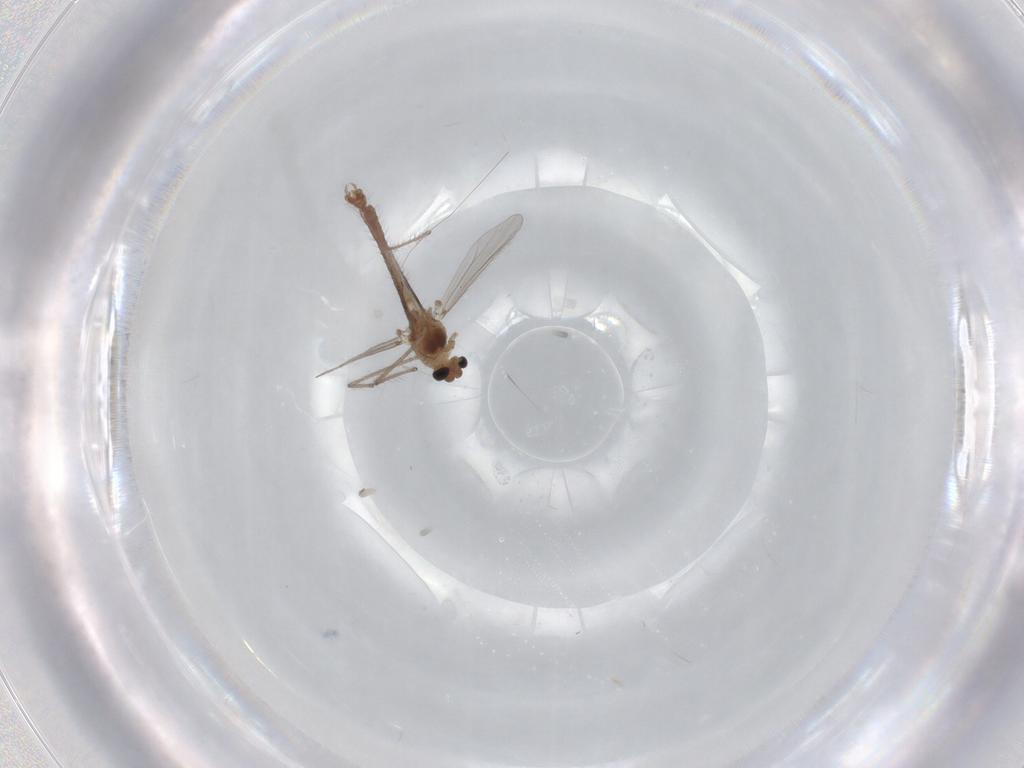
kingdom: Animalia
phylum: Arthropoda
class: Insecta
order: Diptera
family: Chironomidae
